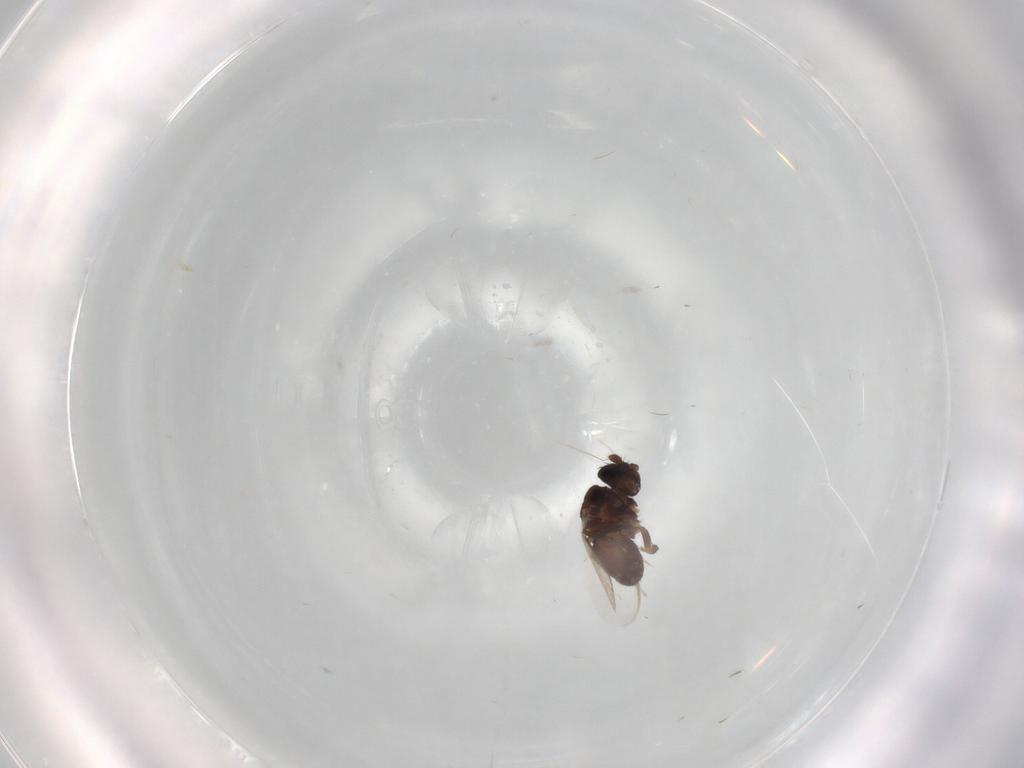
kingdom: Animalia
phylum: Arthropoda
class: Insecta
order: Diptera
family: Sphaeroceridae
